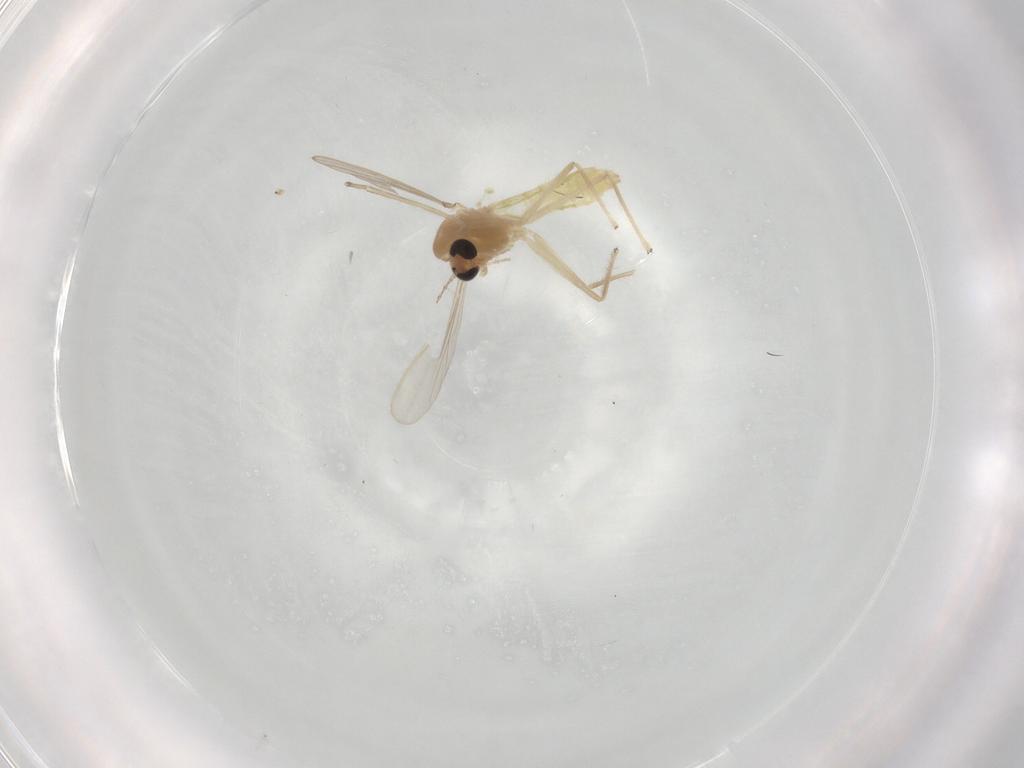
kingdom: Animalia
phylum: Arthropoda
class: Insecta
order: Diptera
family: Chironomidae
